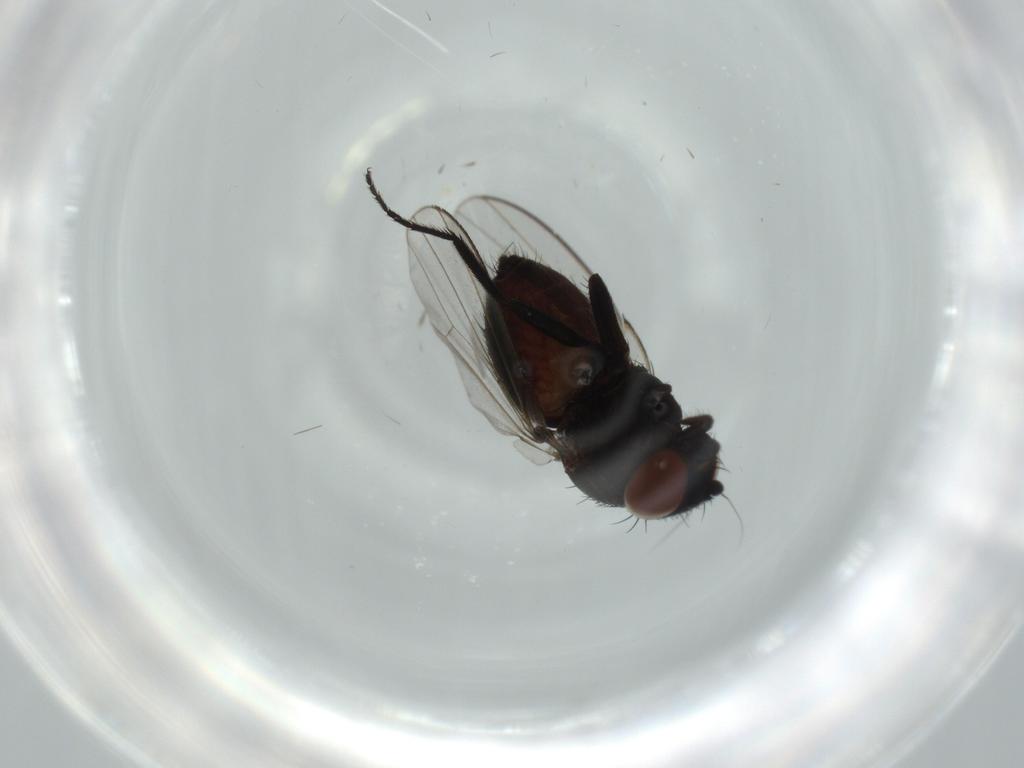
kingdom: Animalia
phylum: Arthropoda
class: Insecta
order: Diptera
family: Milichiidae
